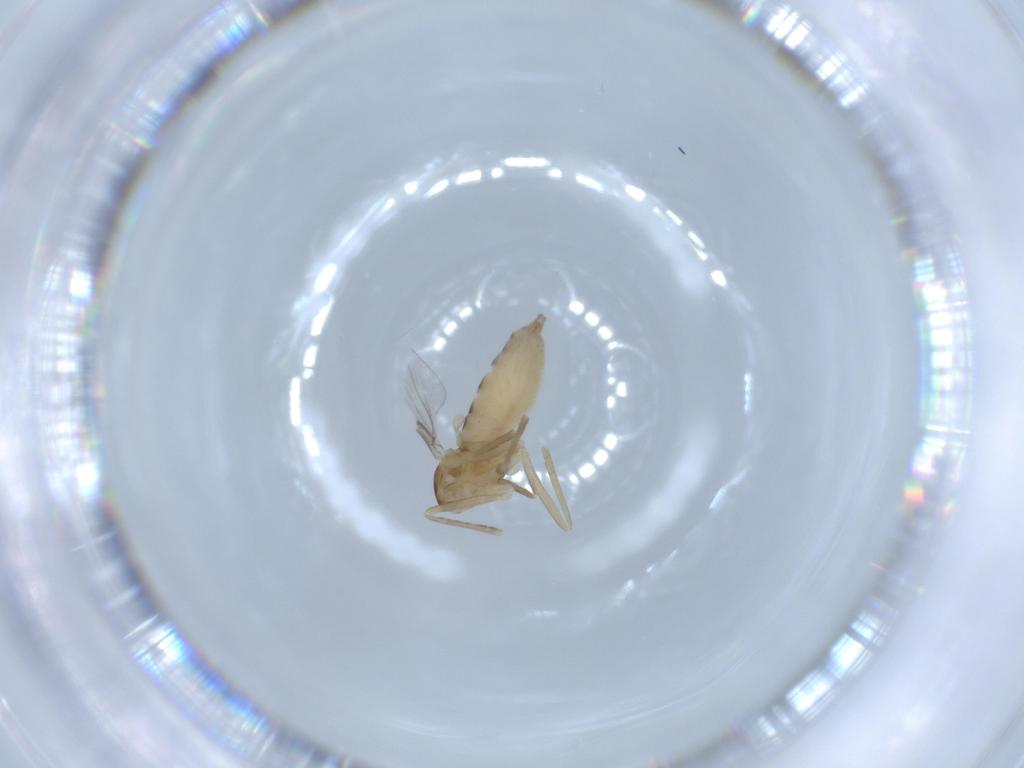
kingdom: Animalia
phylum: Arthropoda
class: Insecta
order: Diptera
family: Cecidomyiidae
